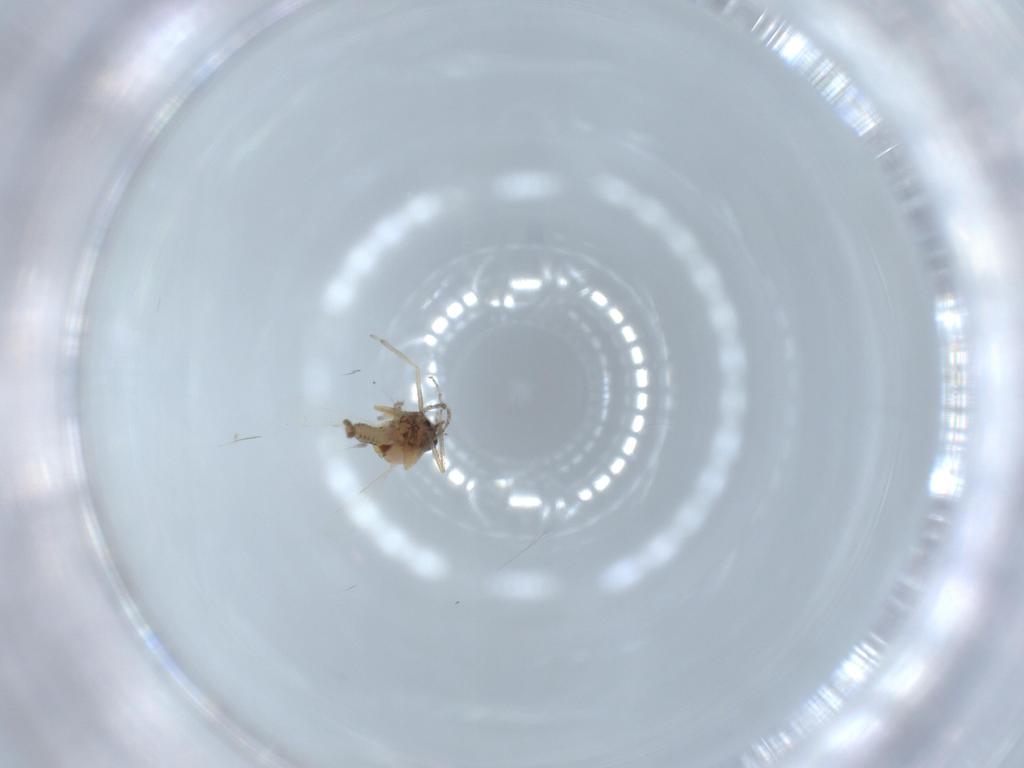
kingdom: Animalia
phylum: Arthropoda
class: Insecta
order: Diptera
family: Ceratopogonidae
